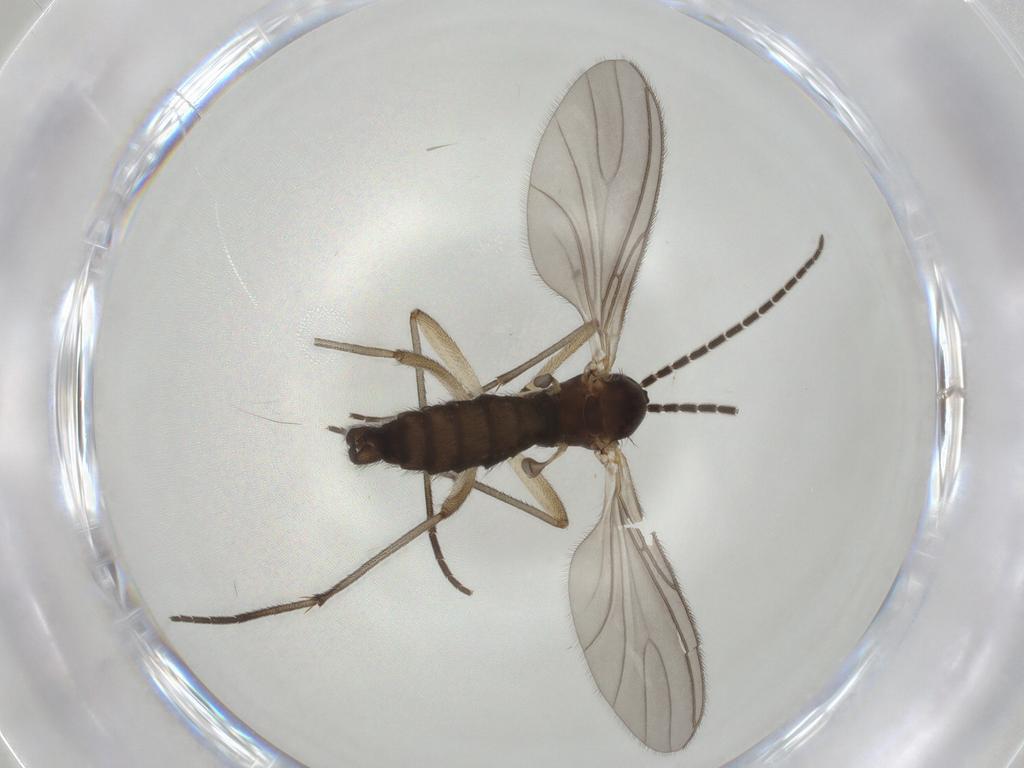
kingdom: Animalia
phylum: Arthropoda
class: Insecta
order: Diptera
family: Sciaridae
